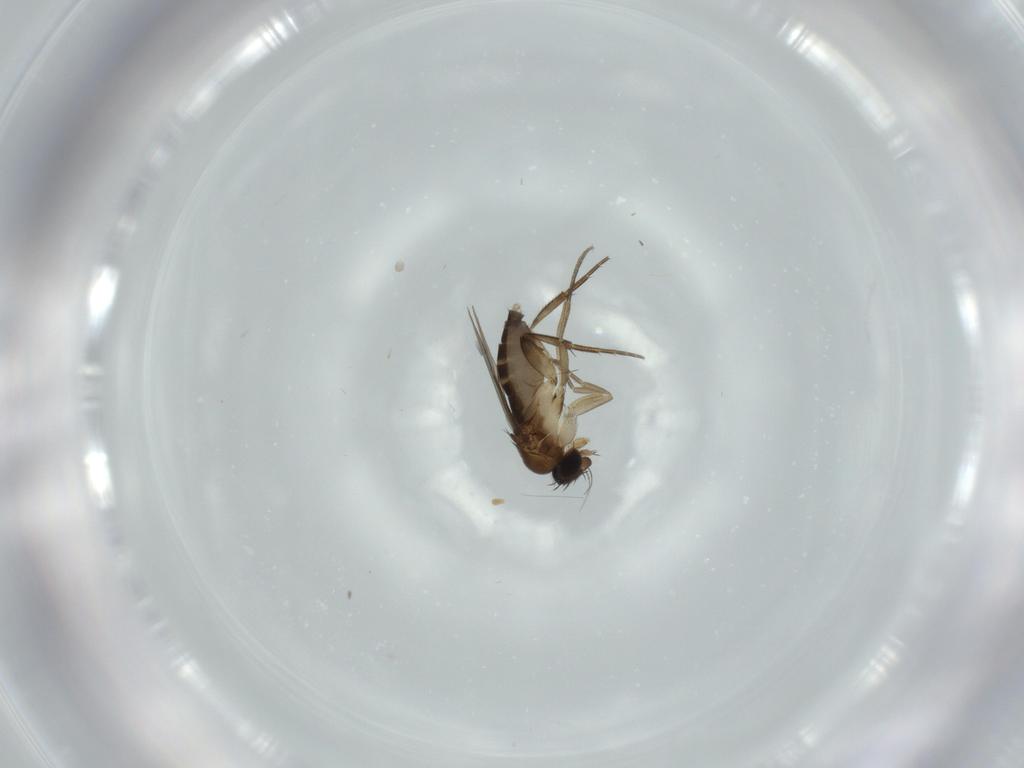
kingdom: Animalia
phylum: Arthropoda
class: Insecta
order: Diptera
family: Phoridae
